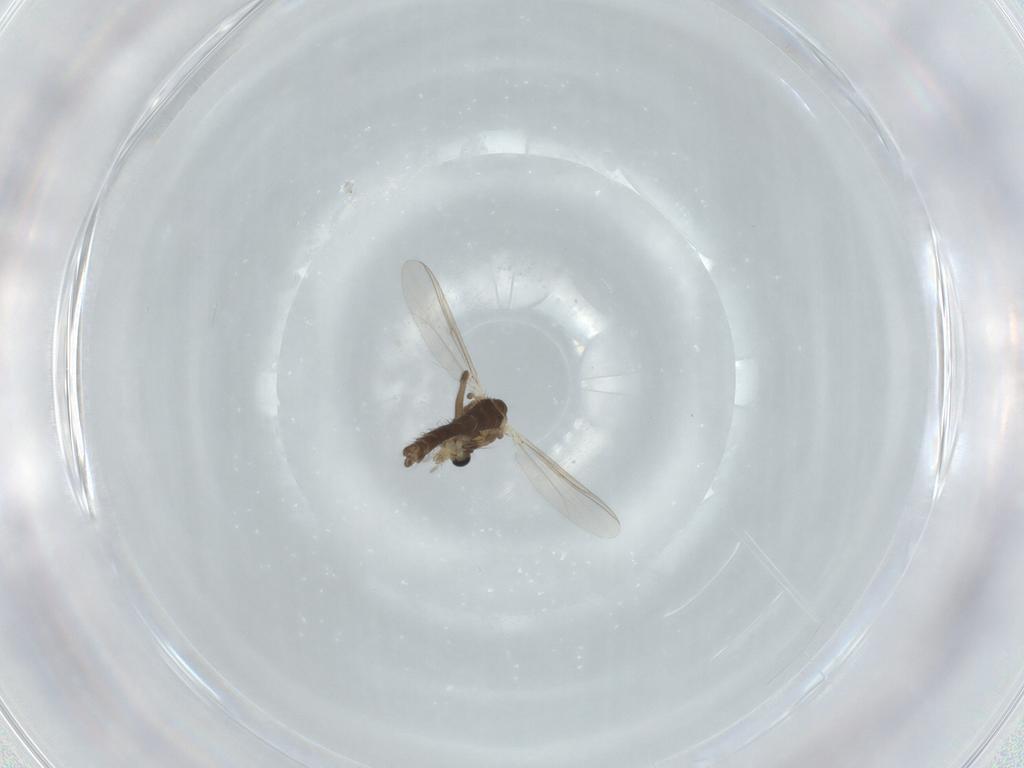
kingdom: Animalia
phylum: Arthropoda
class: Insecta
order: Diptera
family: Chironomidae
